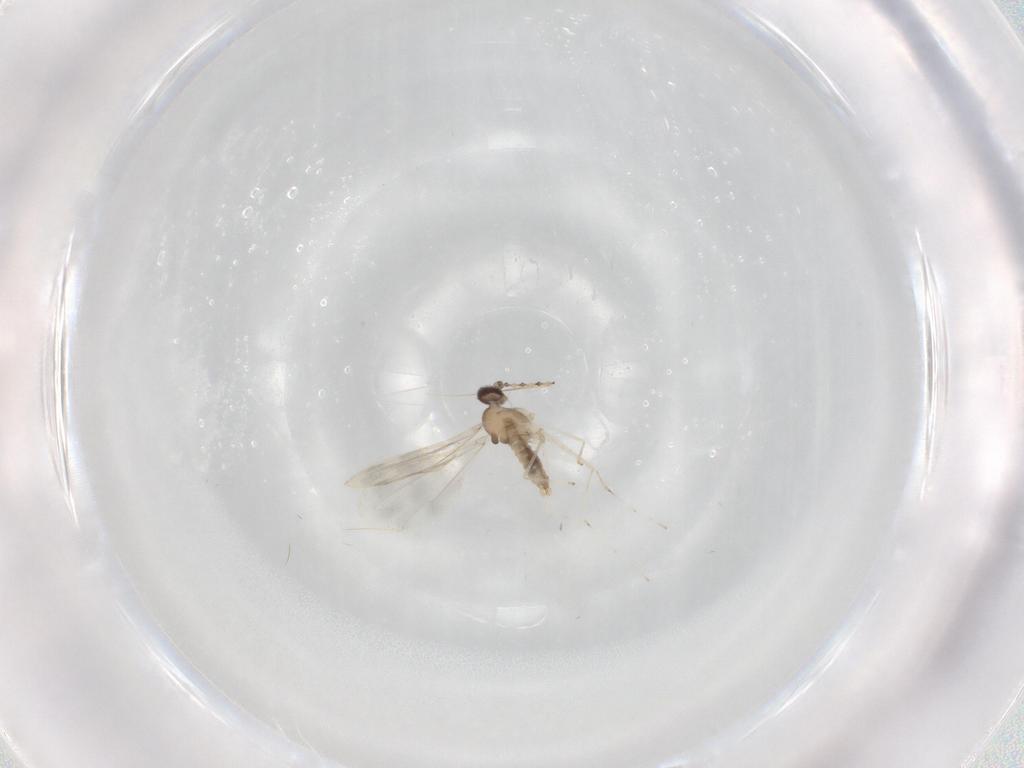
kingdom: Animalia
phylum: Arthropoda
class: Insecta
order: Diptera
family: Cecidomyiidae
